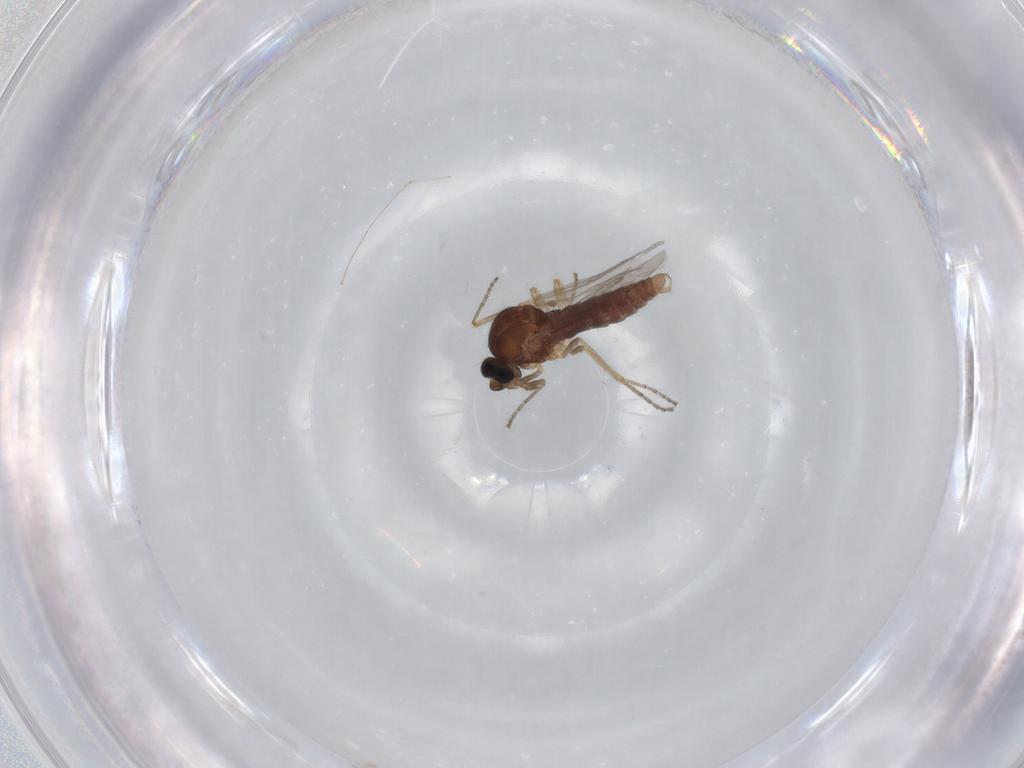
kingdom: Animalia
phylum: Arthropoda
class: Insecta
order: Diptera
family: Ceratopogonidae
